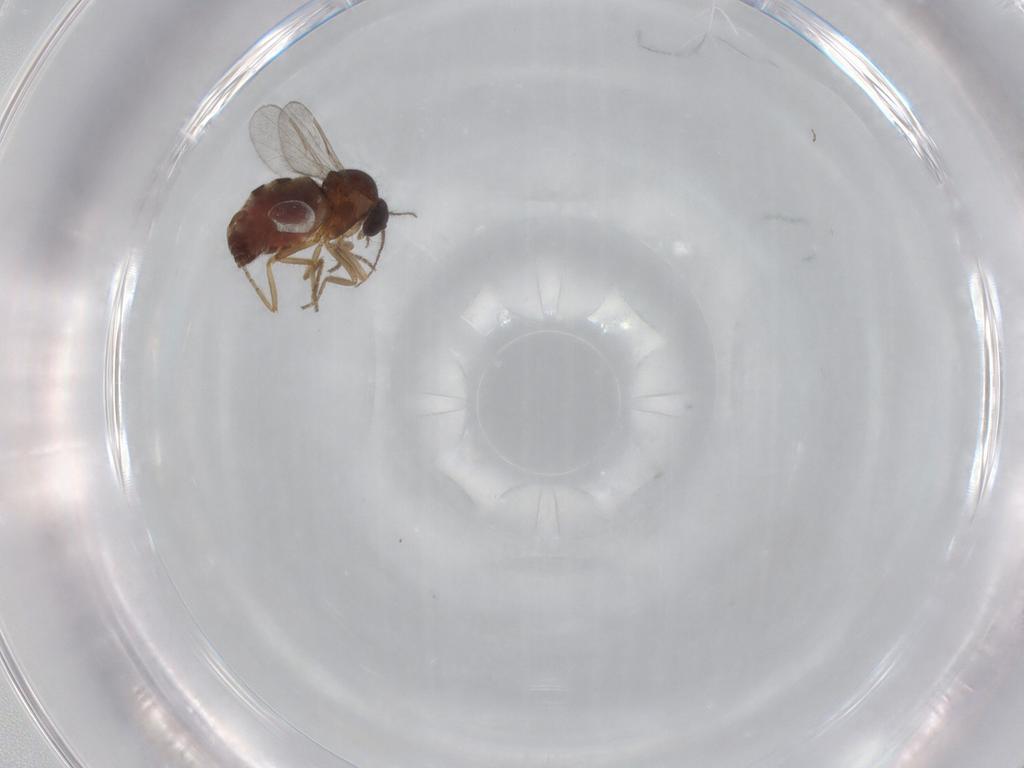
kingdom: Animalia
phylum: Arthropoda
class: Insecta
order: Diptera
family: Ceratopogonidae
